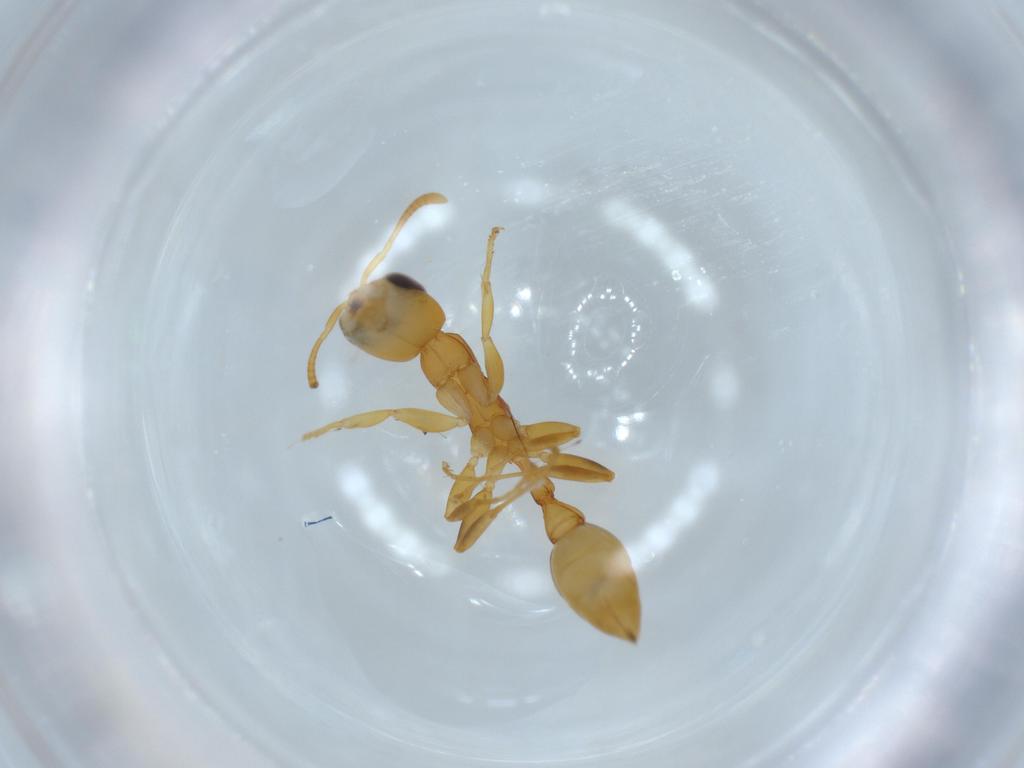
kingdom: Animalia
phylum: Arthropoda
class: Insecta
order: Hymenoptera
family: Formicidae
